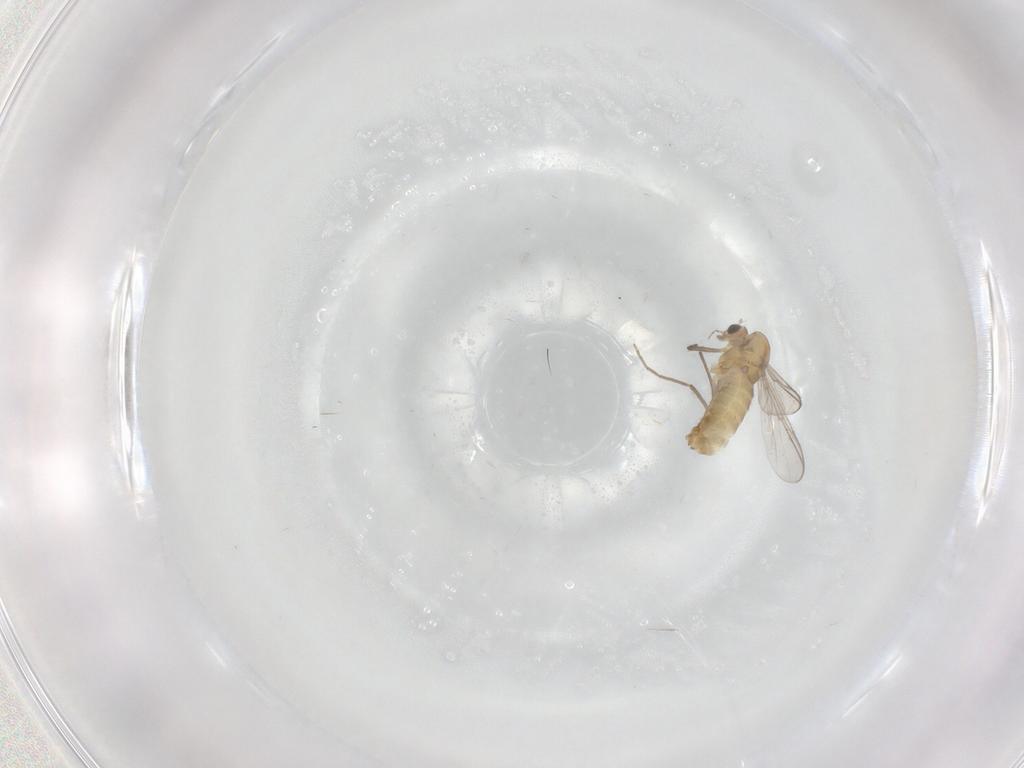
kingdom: Animalia
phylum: Arthropoda
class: Insecta
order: Diptera
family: Chironomidae
